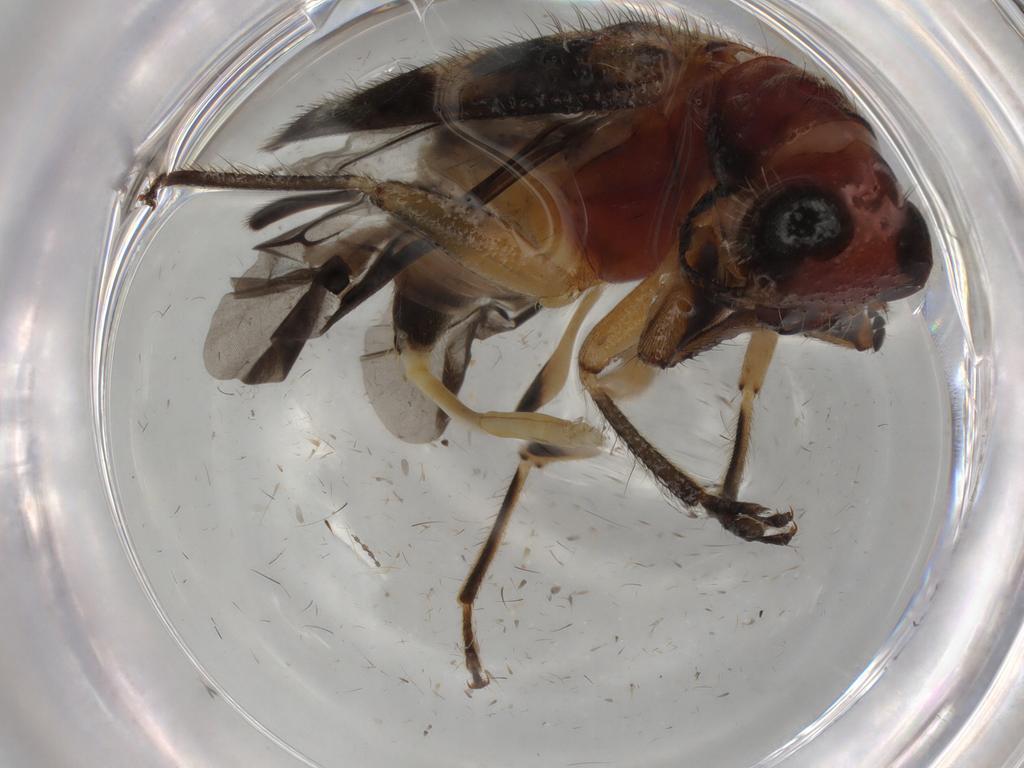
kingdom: Animalia
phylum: Arthropoda
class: Insecta
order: Coleoptera
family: Cleridae
